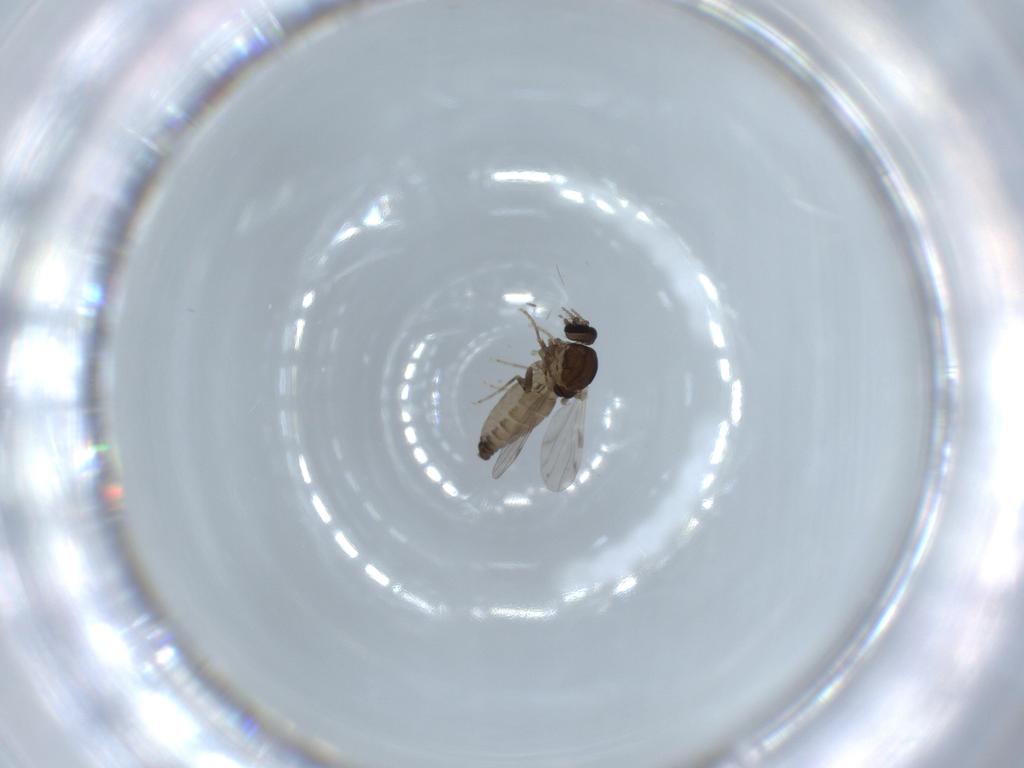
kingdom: Animalia
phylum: Arthropoda
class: Insecta
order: Diptera
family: Ceratopogonidae
